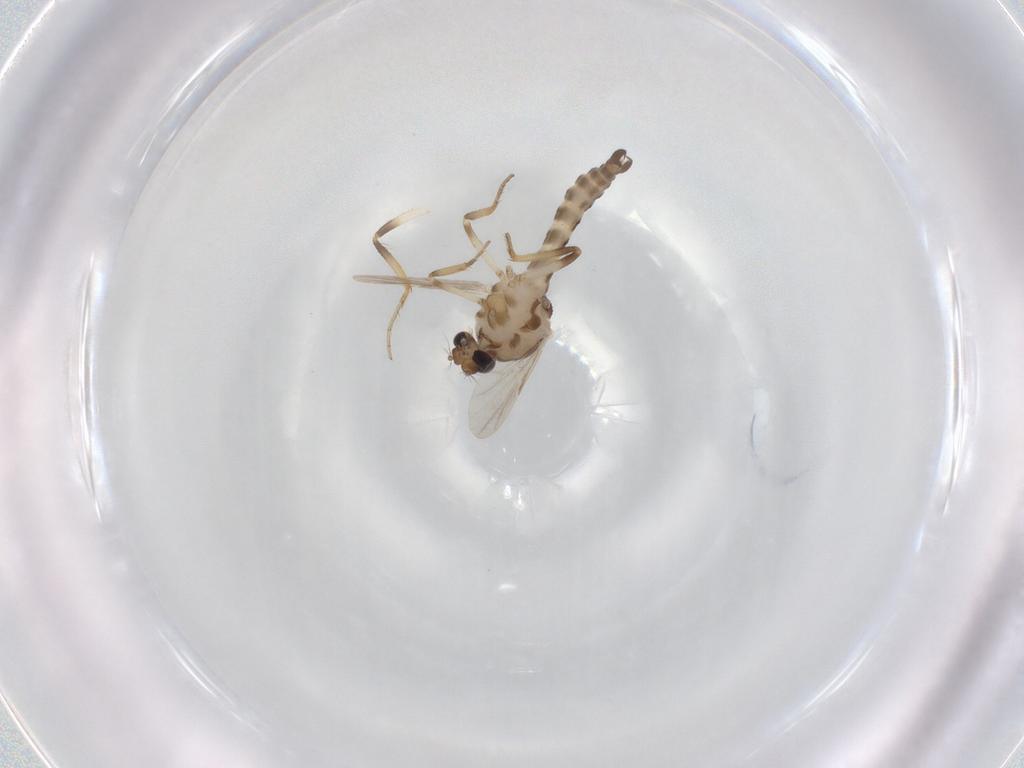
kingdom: Animalia
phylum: Arthropoda
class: Insecta
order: Diptera
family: Ceratopogonidae
